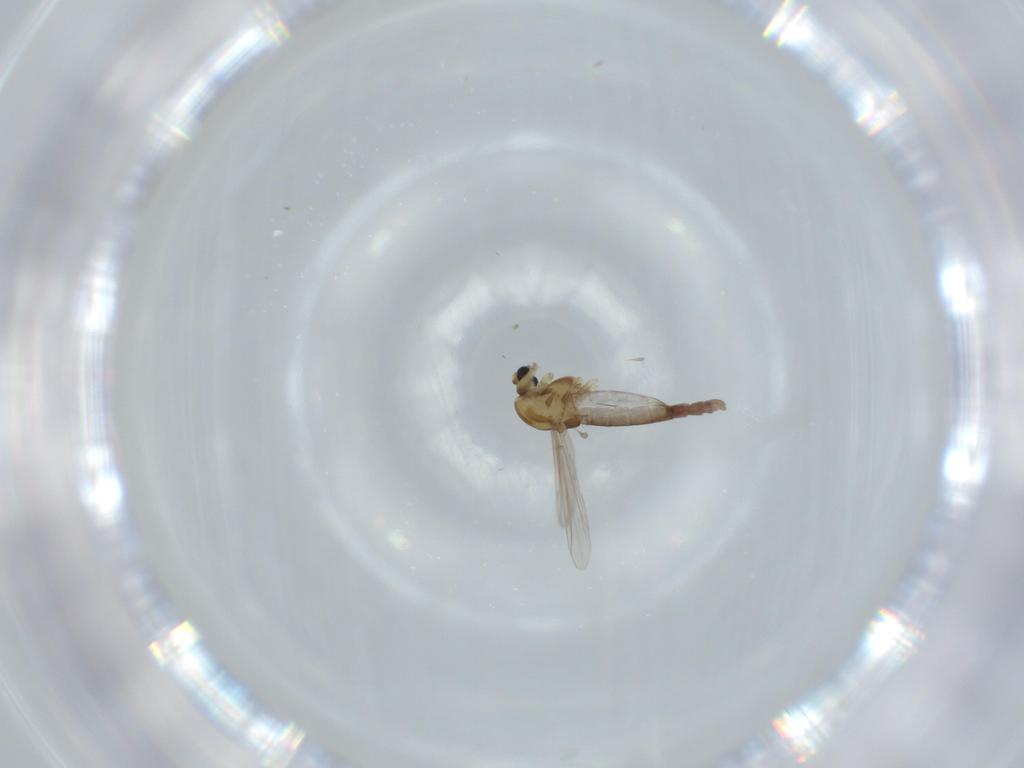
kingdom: Animalia
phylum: Arthropoda
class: Insecta
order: Diptera
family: Chironomidae
